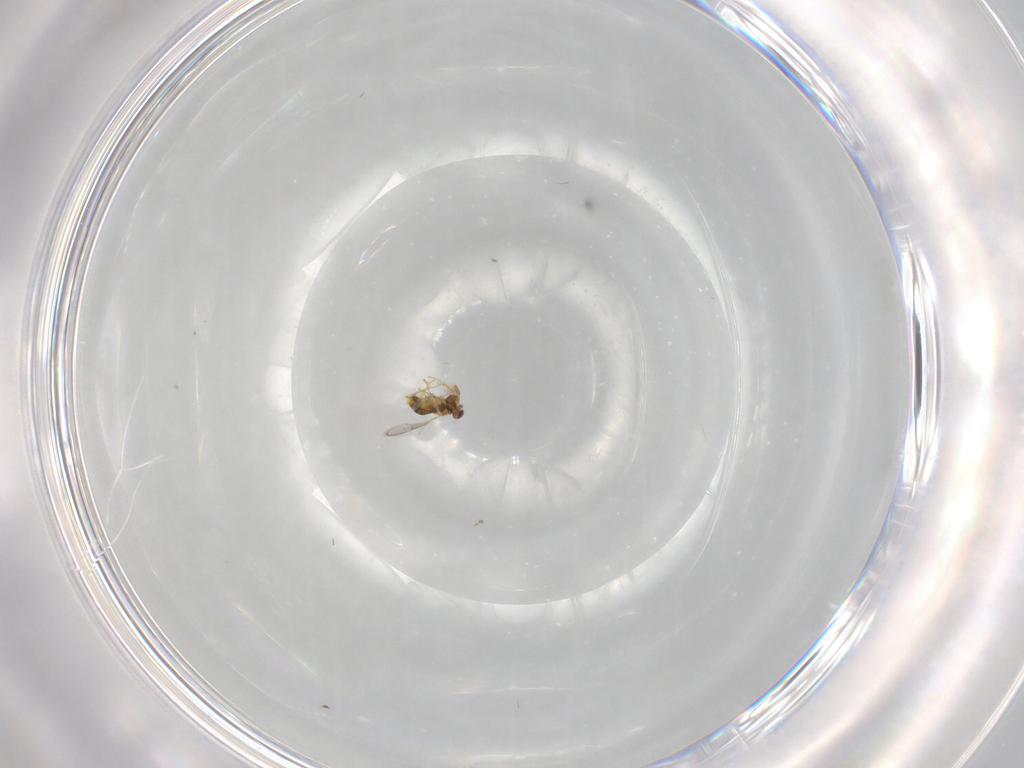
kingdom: Animalia
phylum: Arthropoda
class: Insecta
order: Hymenoptera
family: Aphelinidae
